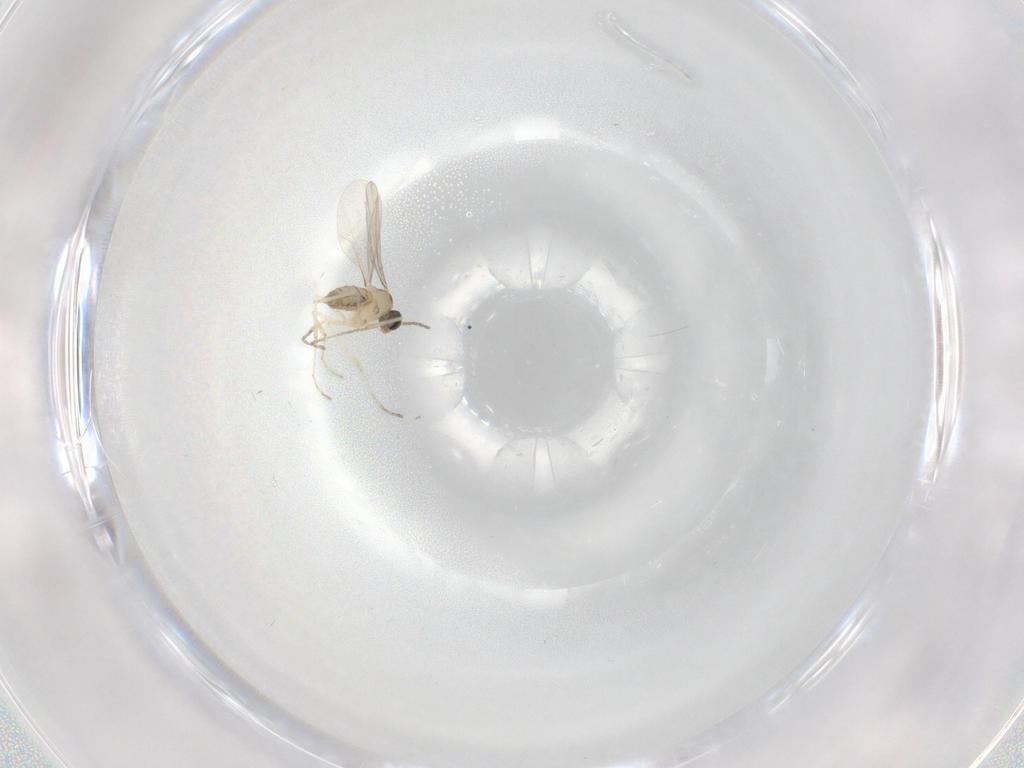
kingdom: Animalia
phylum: Arthropoda
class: Insecta
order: Diptera
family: Cecidomyiidae
